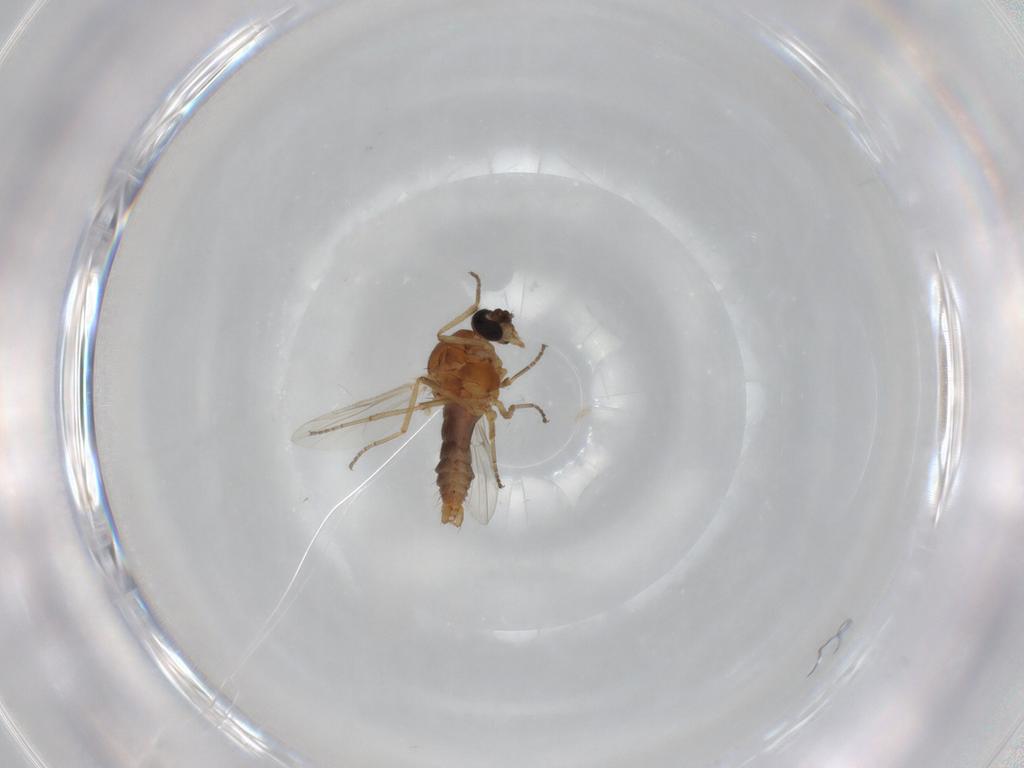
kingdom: Animalia
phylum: Arthropoda
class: Insecta
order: Diptera
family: Ceratopogonidae
